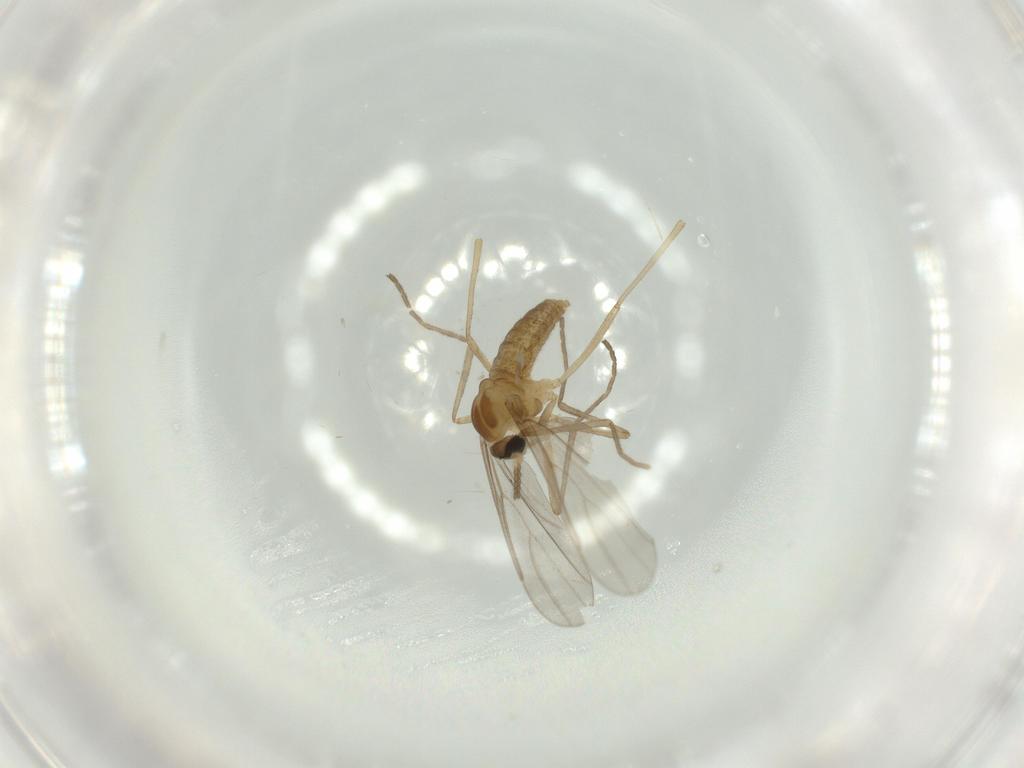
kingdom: Animalia
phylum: Arthropoda
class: Insecta
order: Diptera
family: Cecidomyiidae
